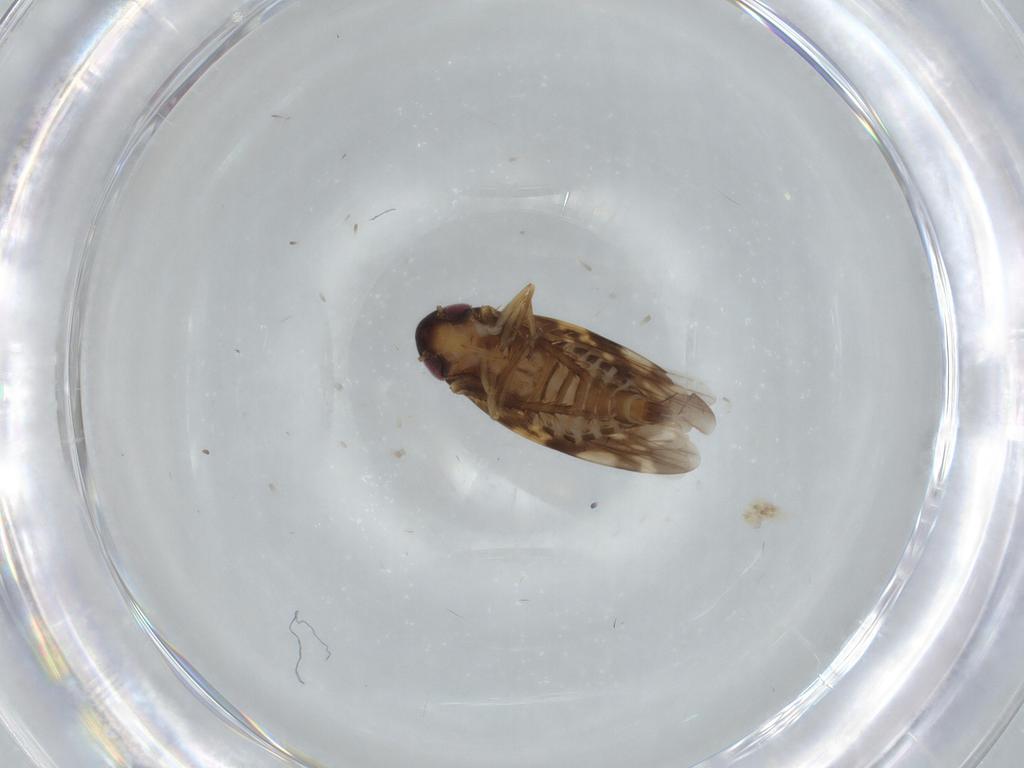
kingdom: Animalia
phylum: Arthropoda
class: Insecta
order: Hemiptera
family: Cicadellidae
